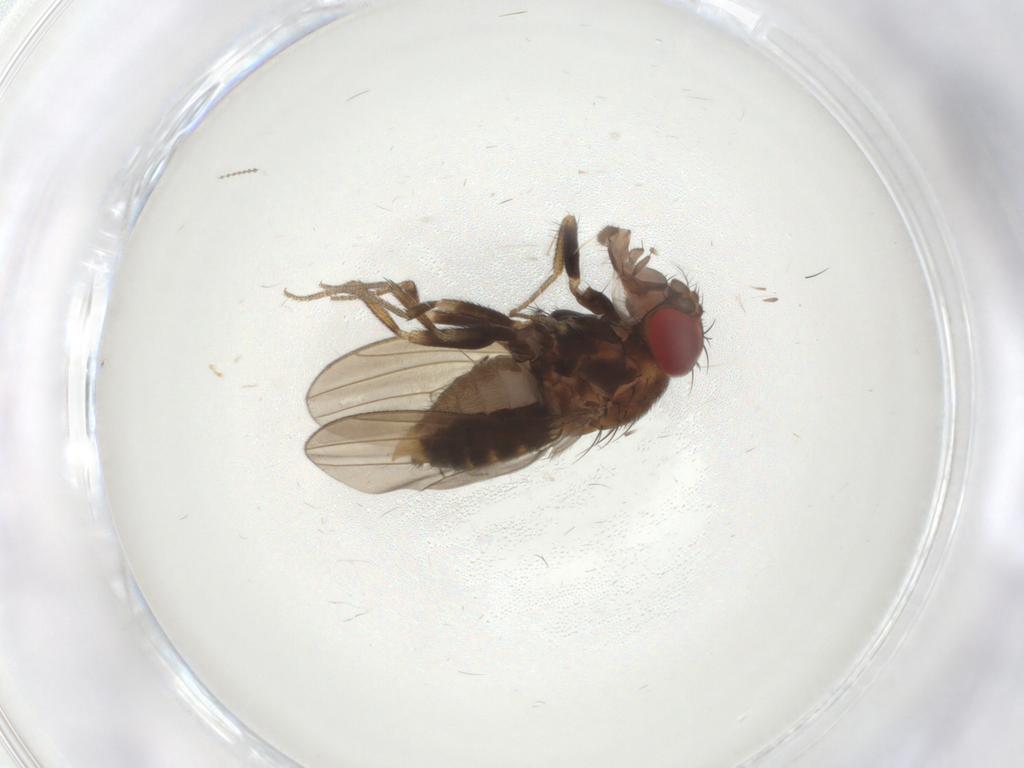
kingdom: Animalia
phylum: Arthropoda
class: Insecta
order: Diptera
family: Drosophilidae
